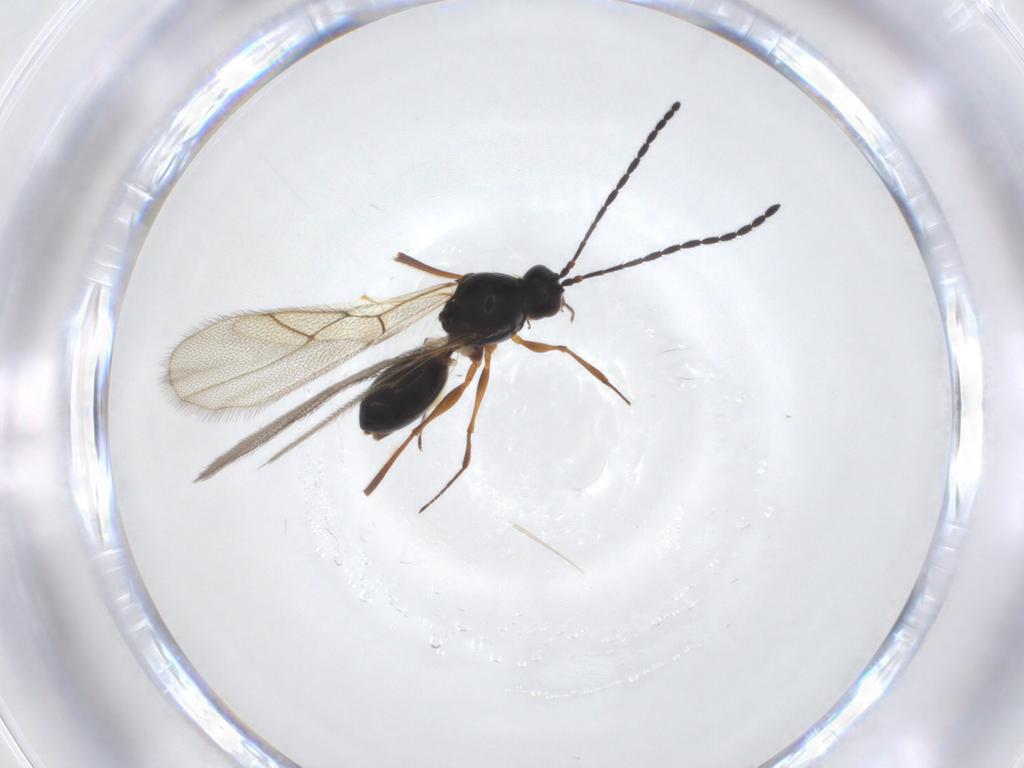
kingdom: Animalia
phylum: Arthropoda
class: Insecta
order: Hymenoptera
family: Figitidae
